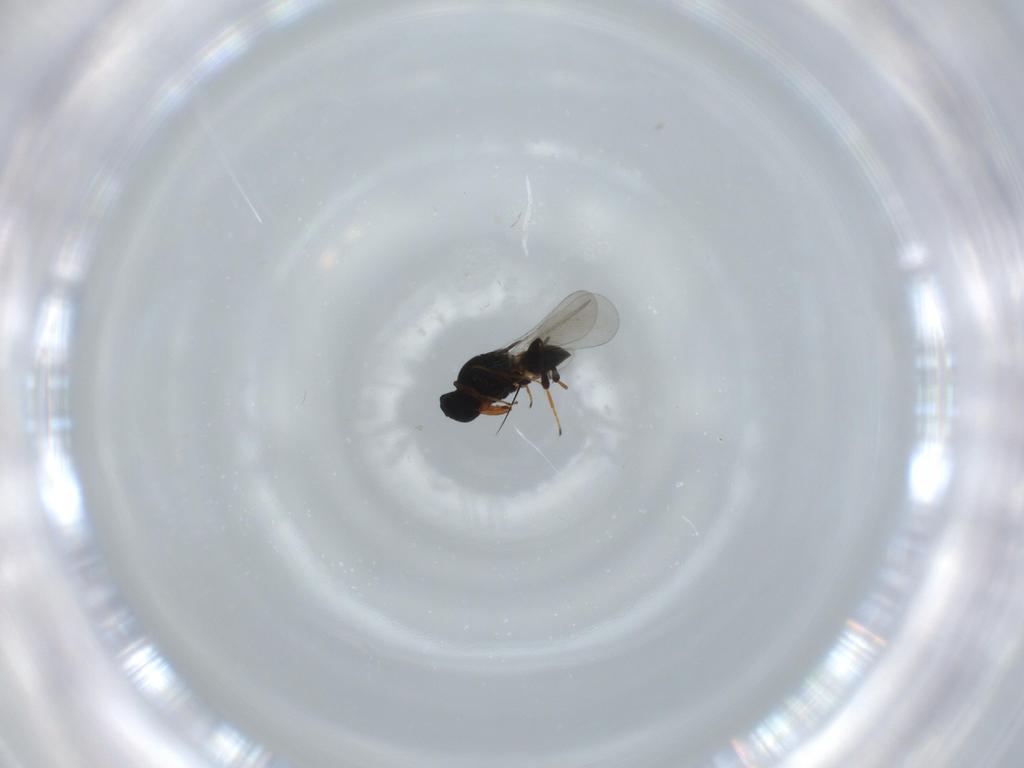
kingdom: Animalia
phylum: Arthropoda
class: Insecta
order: Hymenoptera
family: Platygastridae
